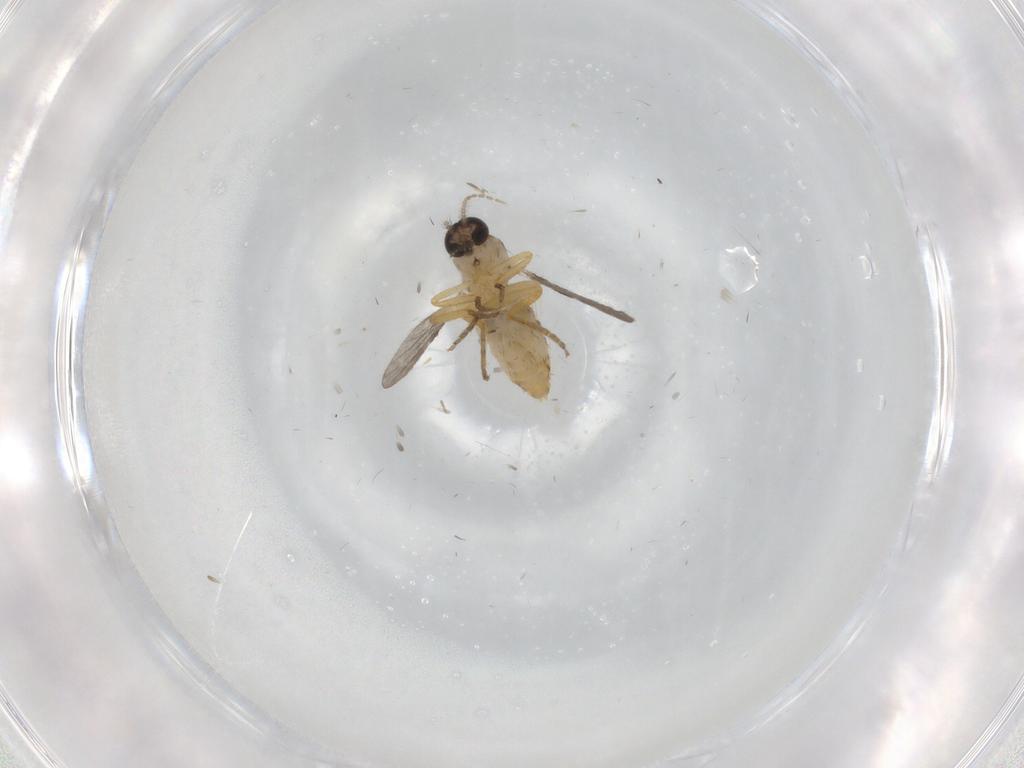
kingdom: Animalia
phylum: Arthropoda
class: Insecta
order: Diptera
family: Ceratopogonidae
